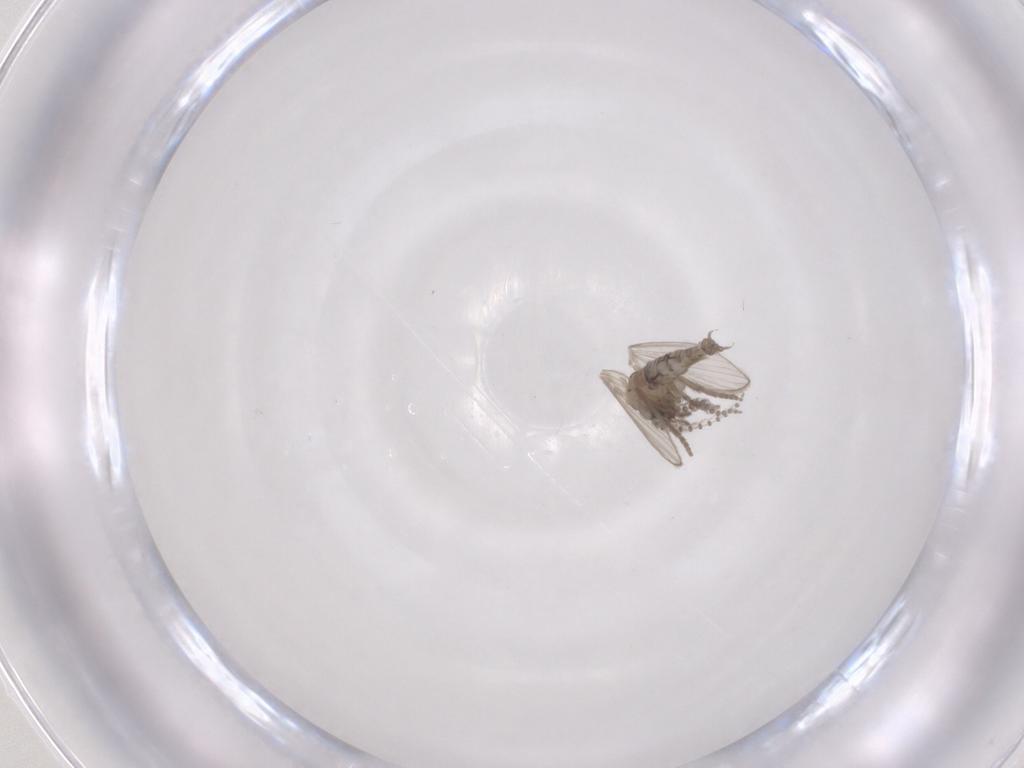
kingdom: Animalia
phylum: Arthropoda
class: Insecta
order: Diptera
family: Psychodidae
